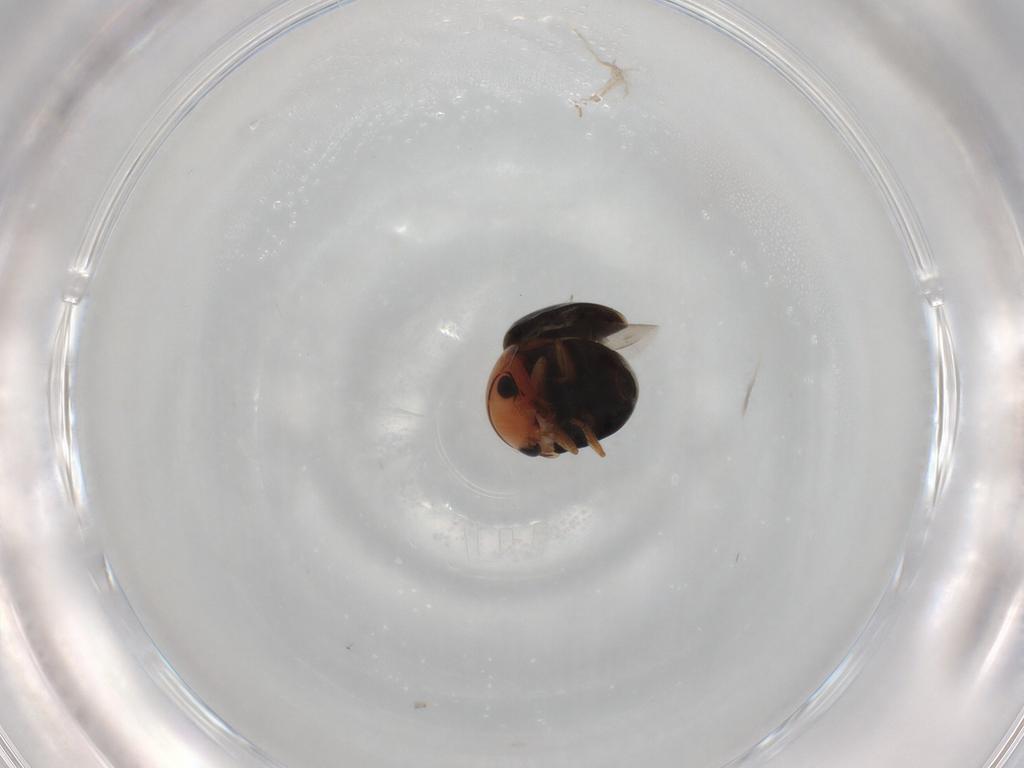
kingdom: Animalia
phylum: Arthropoda
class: Insecta
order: Coleoptera
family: Cybocephalidae
